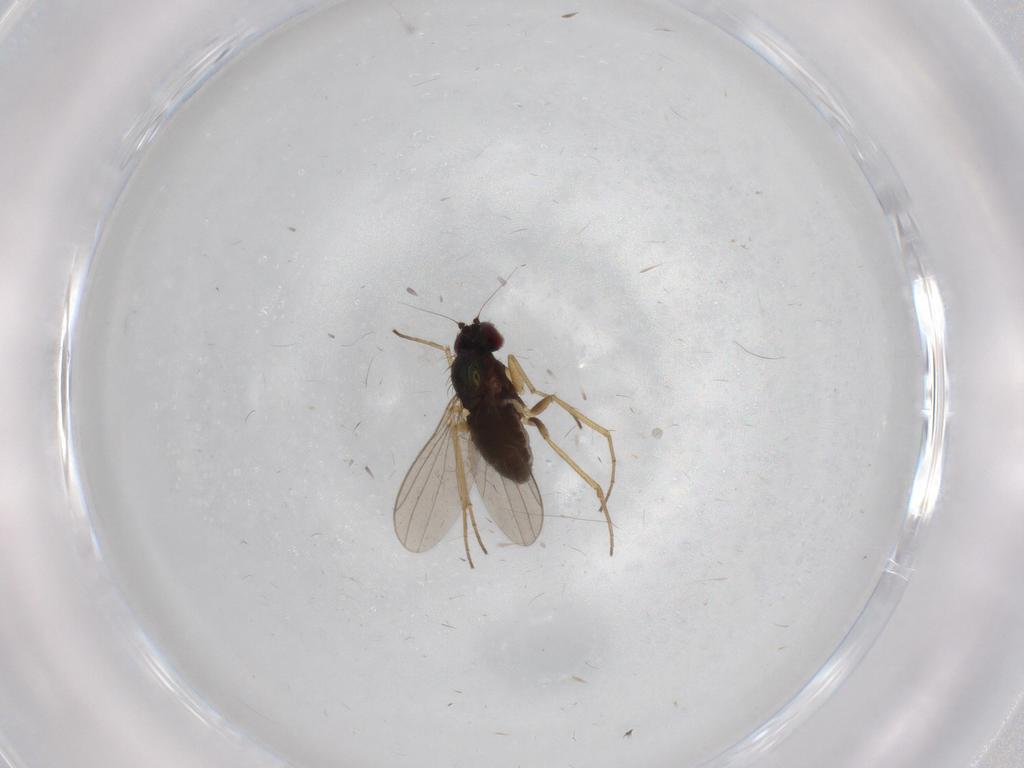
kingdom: Animalia
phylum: Arthropoda
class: Insecta
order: Diptera
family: Dolichopodidae
